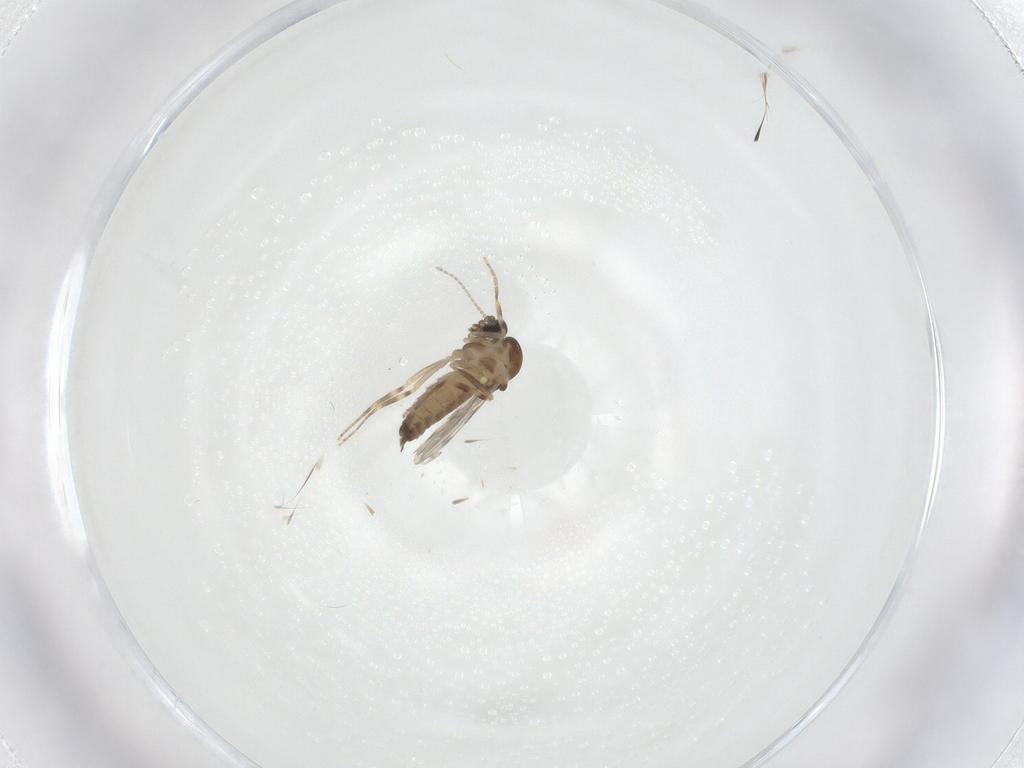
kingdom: Animalia
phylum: Arthropoda
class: Insecta
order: Diptera
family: Ceratopogonidae
